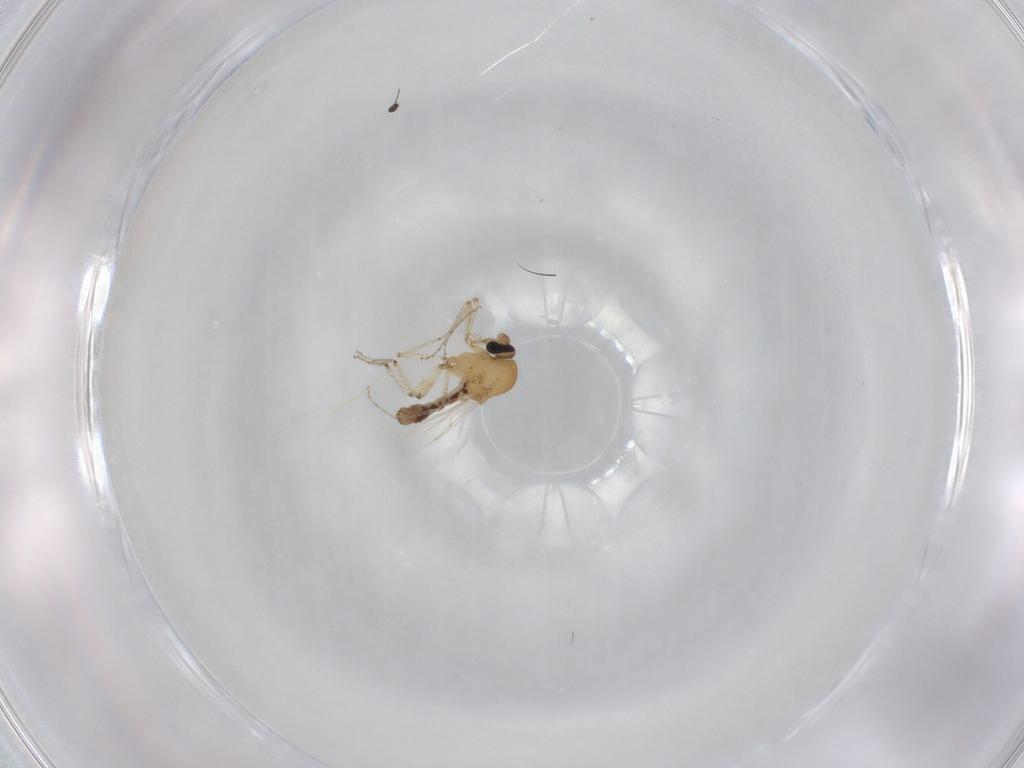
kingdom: Animalia
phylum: Arthropoda
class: Insecta
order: Diptera
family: Ceratopogonidae
